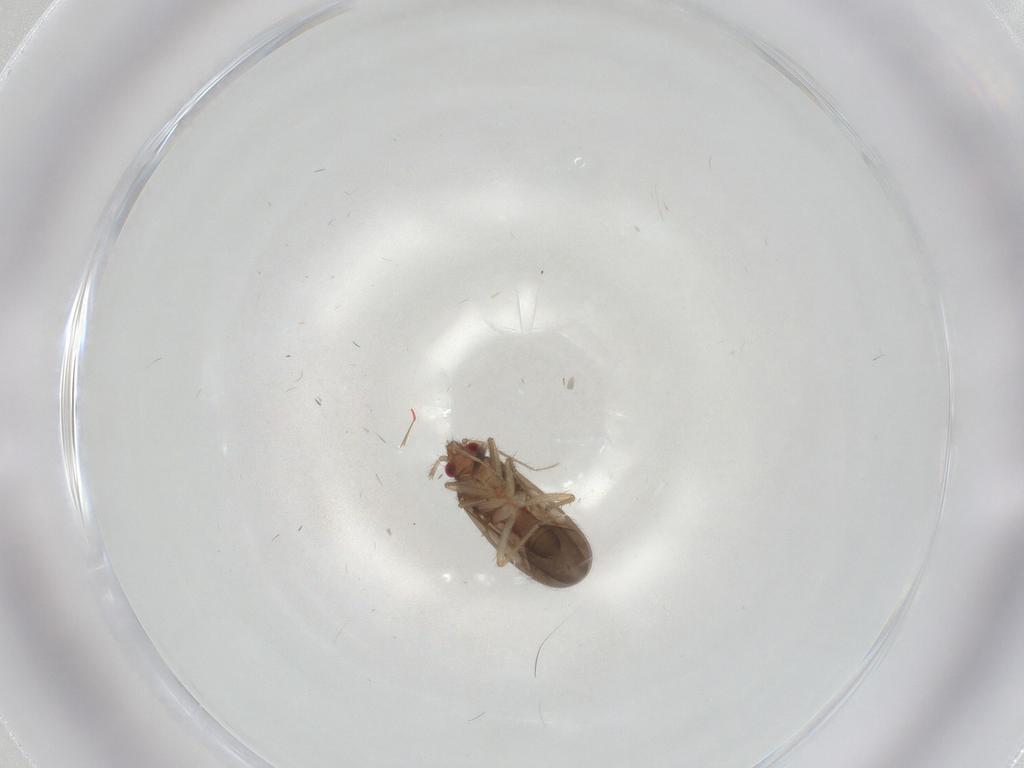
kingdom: Animalia
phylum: Arthropoda
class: Insecta
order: Hemiptera
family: Ceratocombidae
